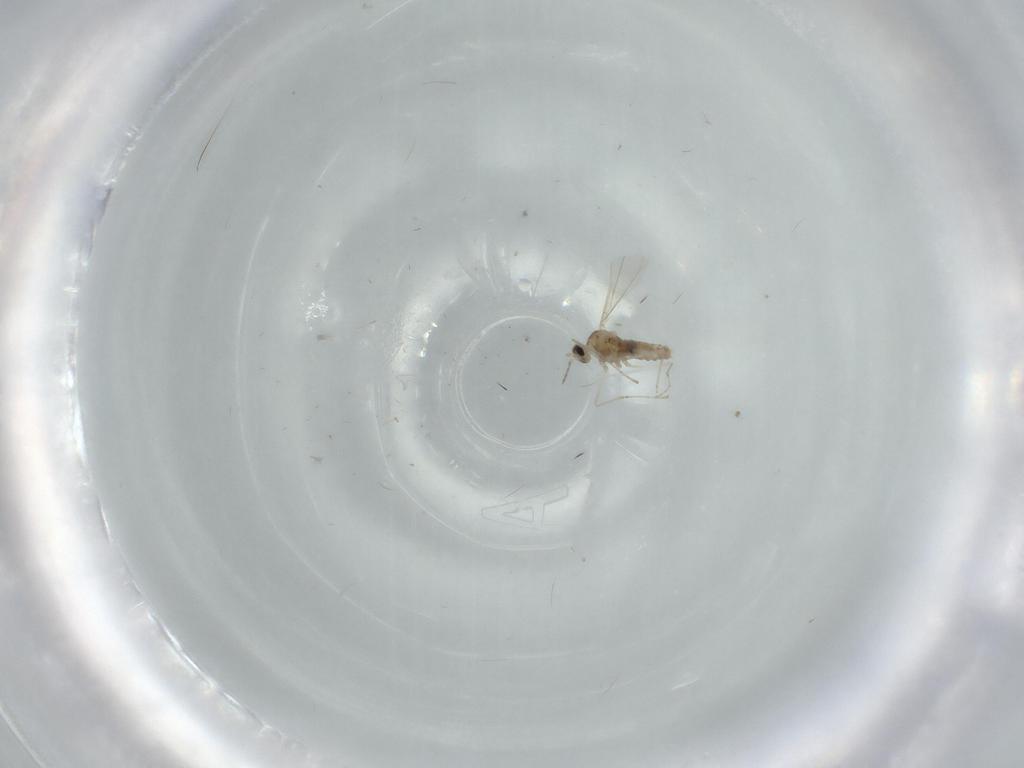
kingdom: Animalia
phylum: Arthropoda
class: Insecta
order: Diptera
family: Cecidomyiidae
